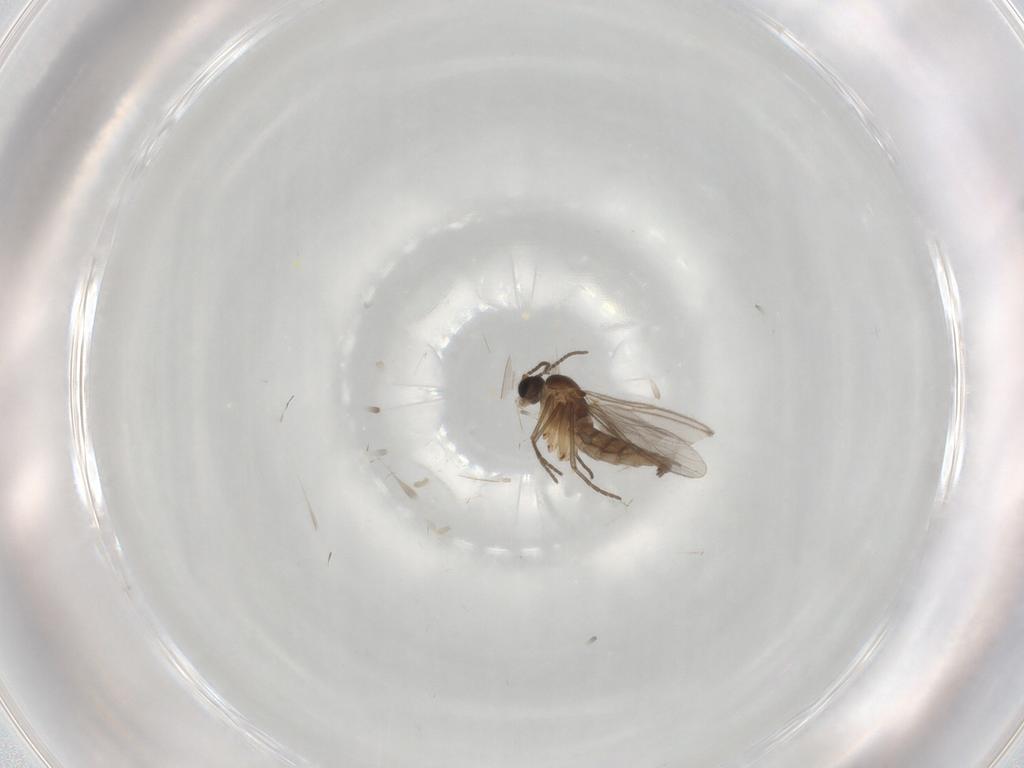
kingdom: Animalia
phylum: Arthropoda
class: Insecta
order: Diptera
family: Sciaridae
